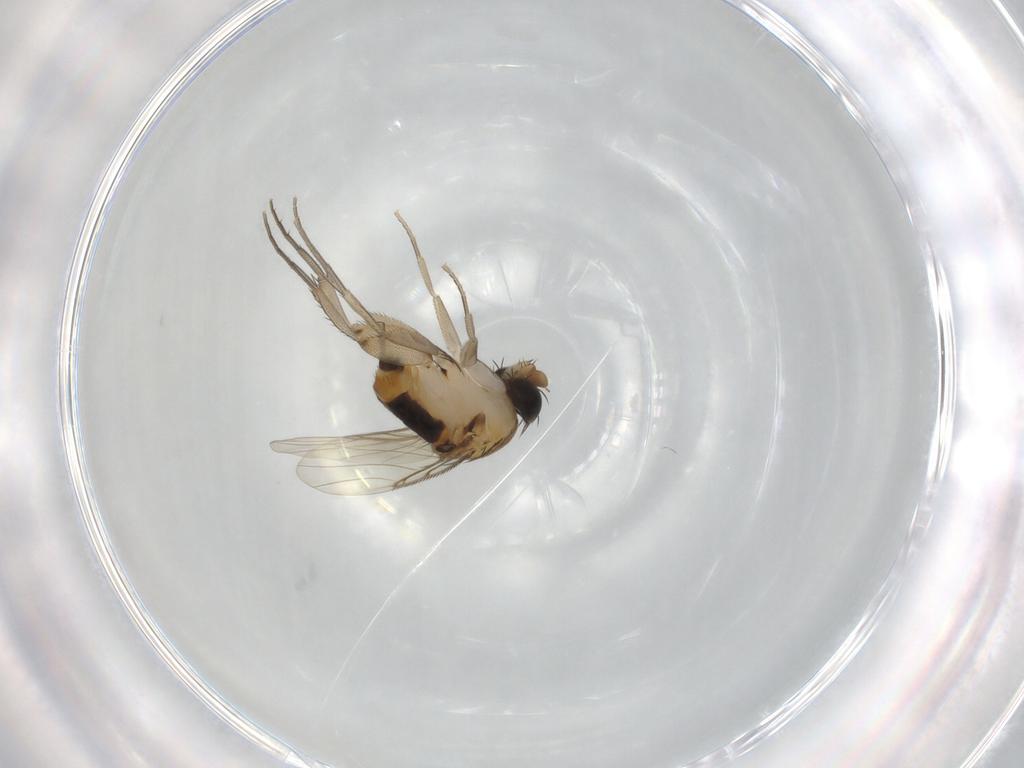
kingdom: Animalia
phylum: Arthropoda
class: Insecta
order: Diptera
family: Phoridae
